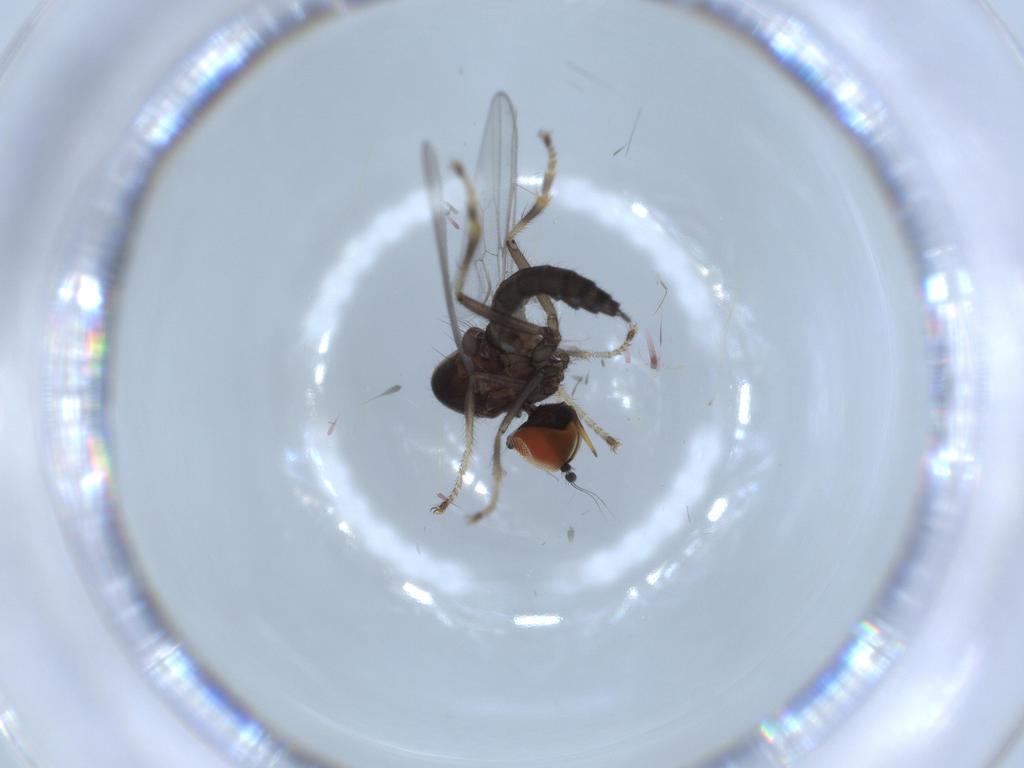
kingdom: Animalia
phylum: Arthropoda
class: Insecta
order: Diptera
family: Hybotidae
